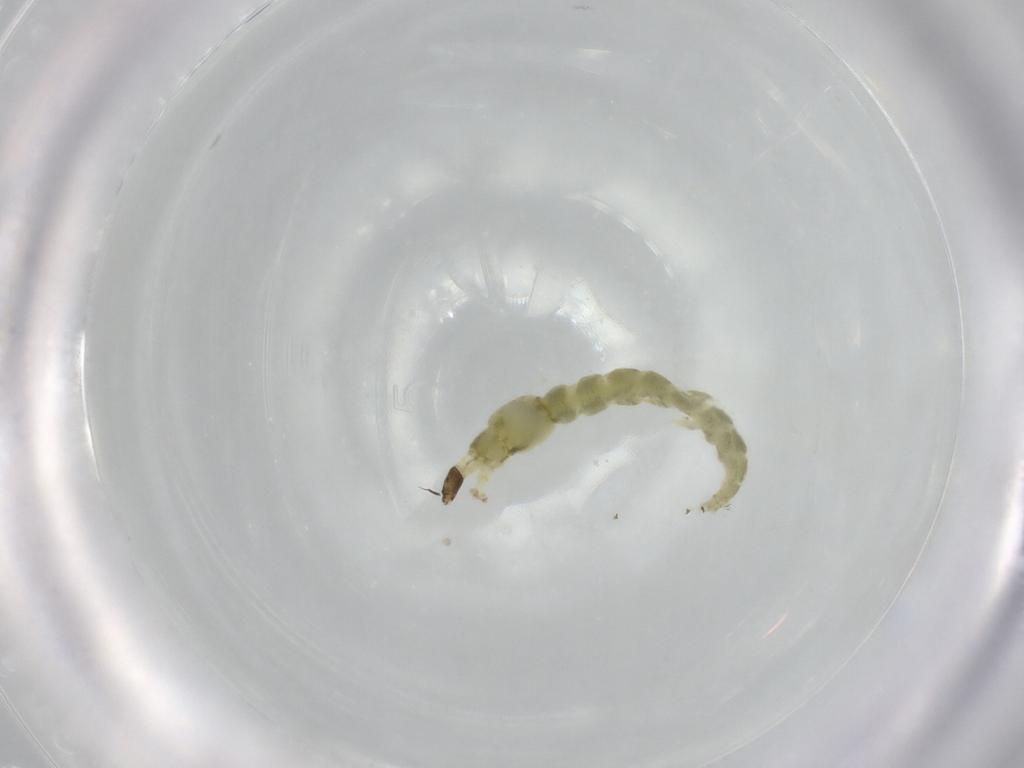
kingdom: Animalia
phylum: Arthropoda
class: Insecta
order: Diptera
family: Chironomidae
